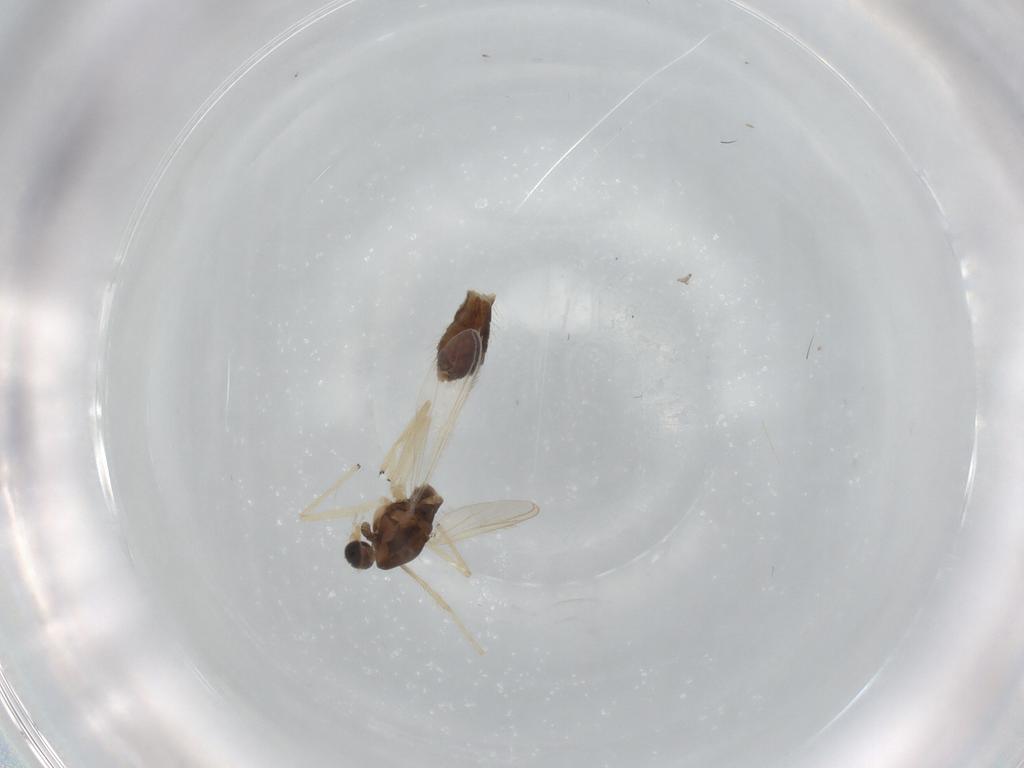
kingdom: Animalia
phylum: Arthropoda
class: Insecta
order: Diptera
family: Chironomidae
